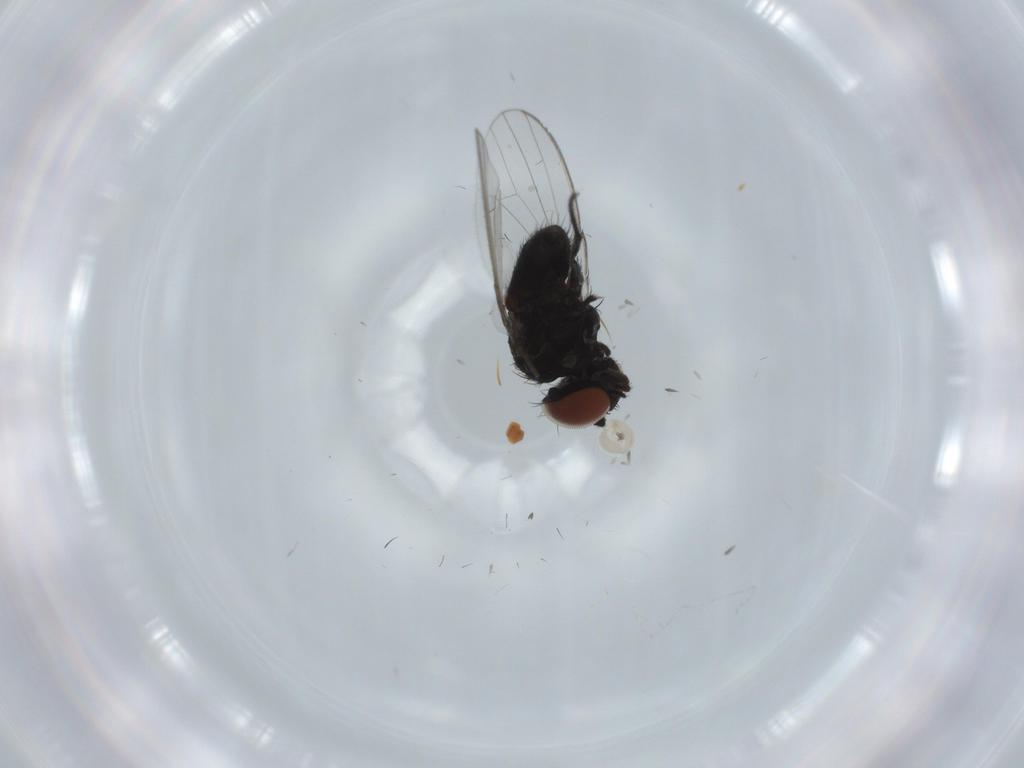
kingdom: Animalia
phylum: Arthropoda
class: Insecta
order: Diptera
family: Milichiidae
